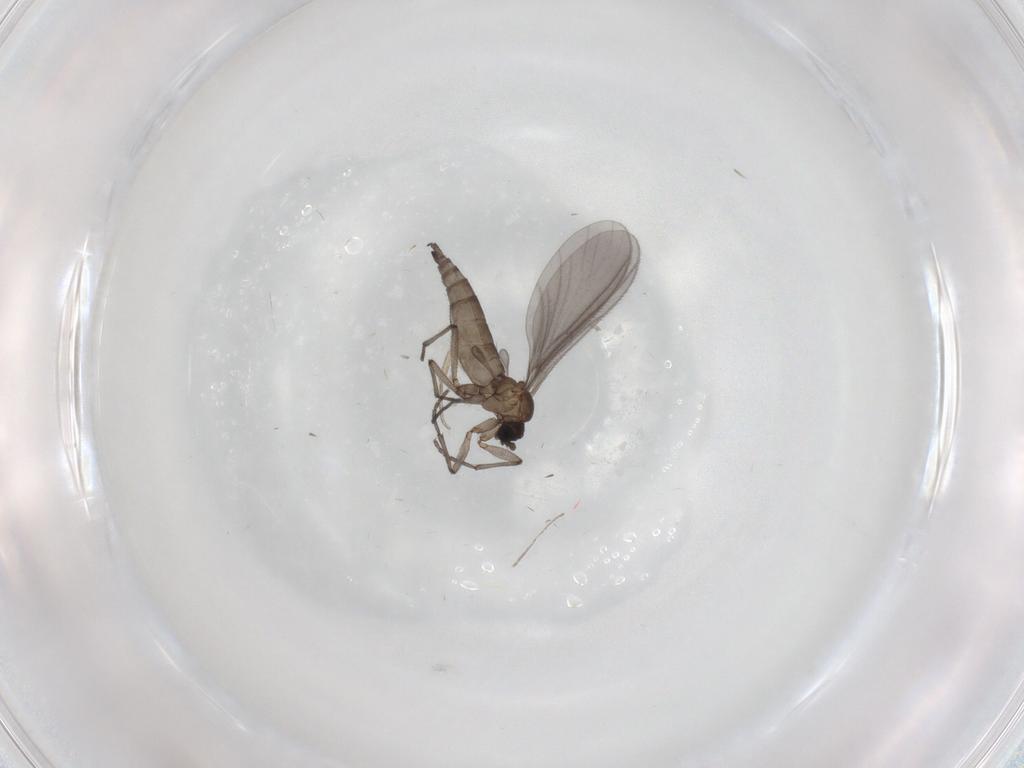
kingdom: Animalia
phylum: Arthropoda
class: Insecta
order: Diptera
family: Sciaridae
